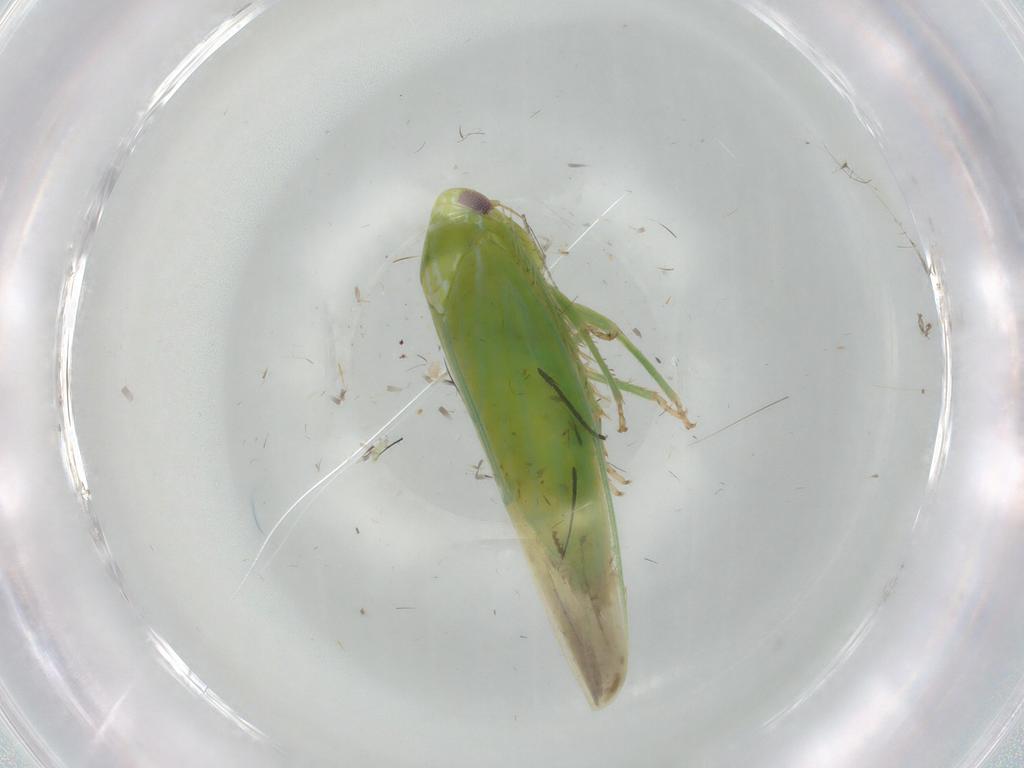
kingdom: Animalia
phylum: Arthropoda
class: Insecta
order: Hemiptera
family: Cicadellidae
